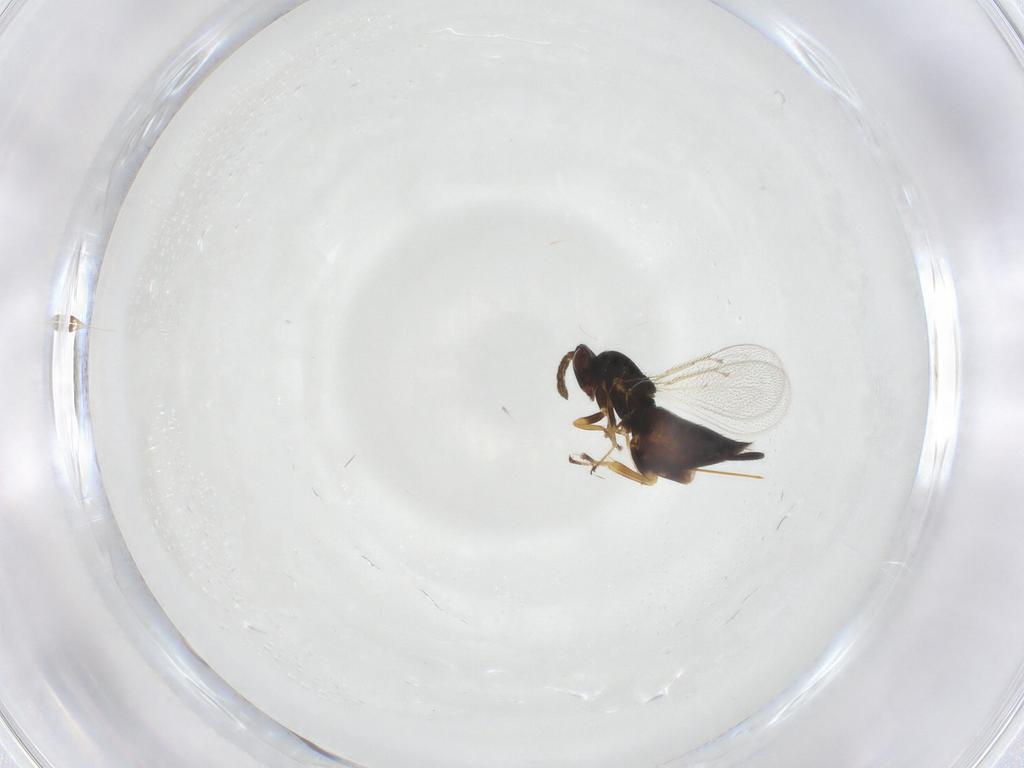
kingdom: Animalia
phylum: Arthropoda
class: Insecta
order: Hymenoptera
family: Eulophidae
